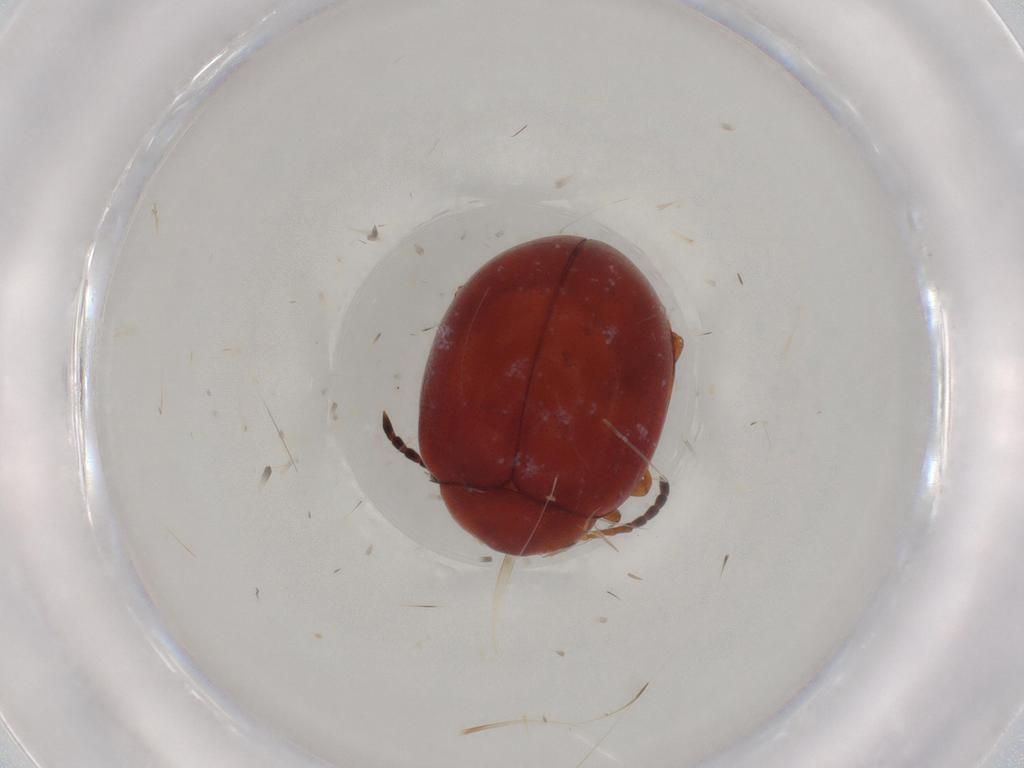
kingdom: Animalia
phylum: Arthropoda
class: Insecta
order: Coleoptera
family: Chrysomelidae
